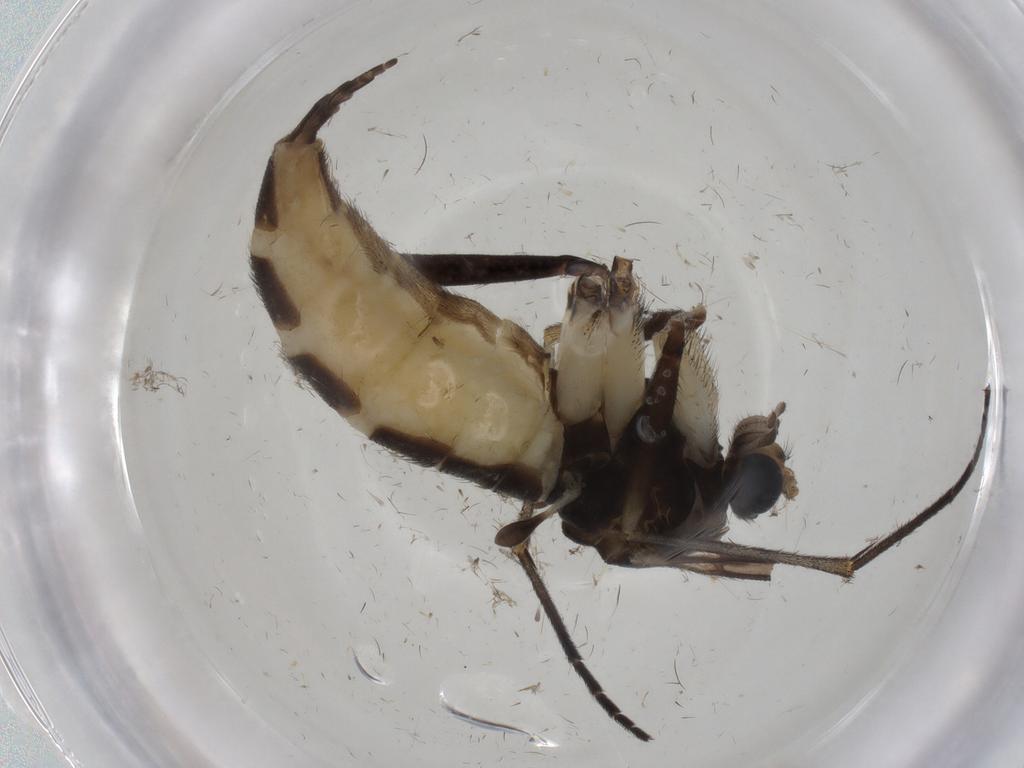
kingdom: Animalia
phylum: Arthropoda
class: Insecta
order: Diptera
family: Sciaridae
